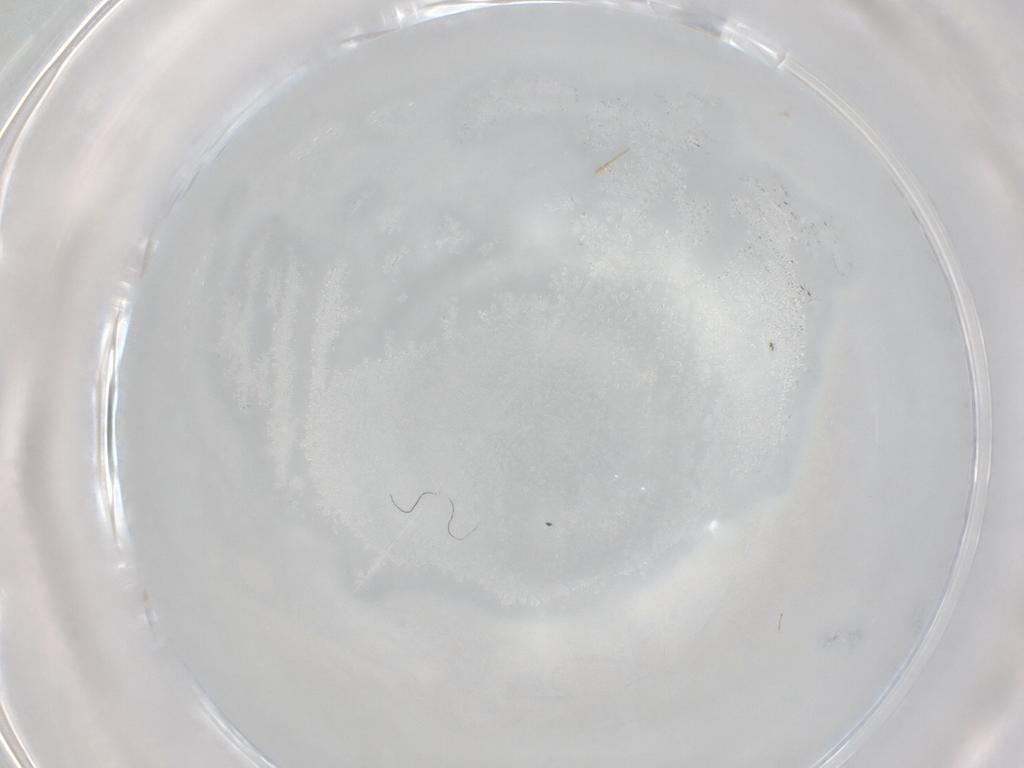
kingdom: Animalia
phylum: Arthropoda
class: Insecta
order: Hymenoptera
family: Mymaridae
